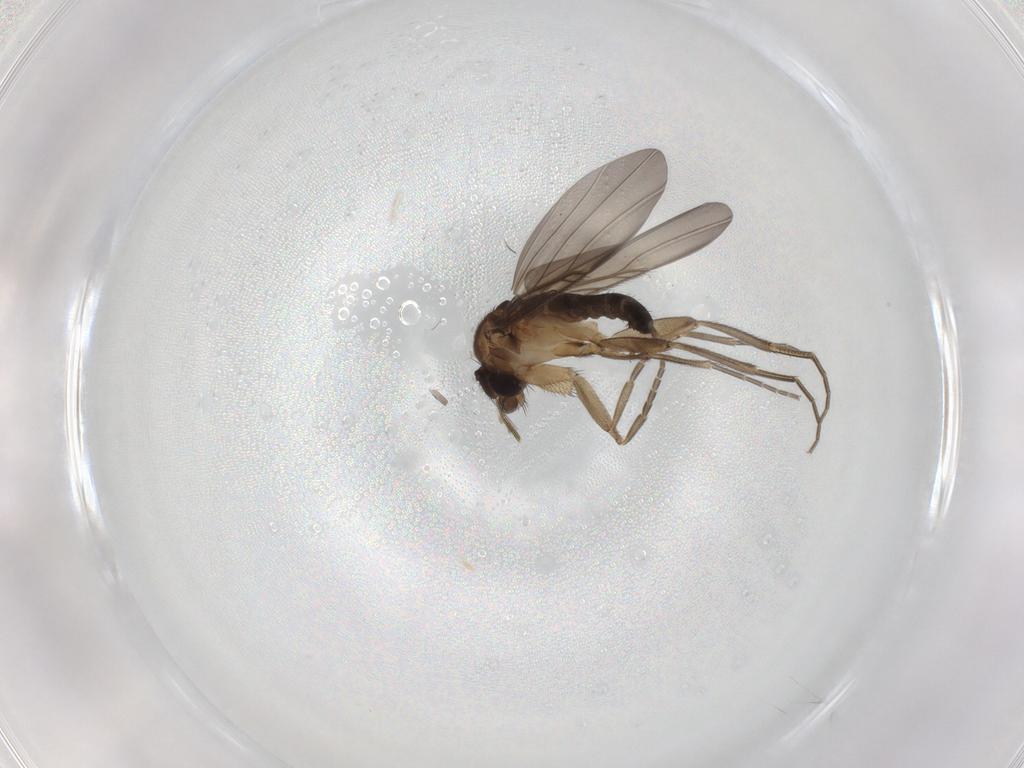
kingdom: Animalia
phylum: Arthropoda
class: Insecta
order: Diptera
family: Phoridae
